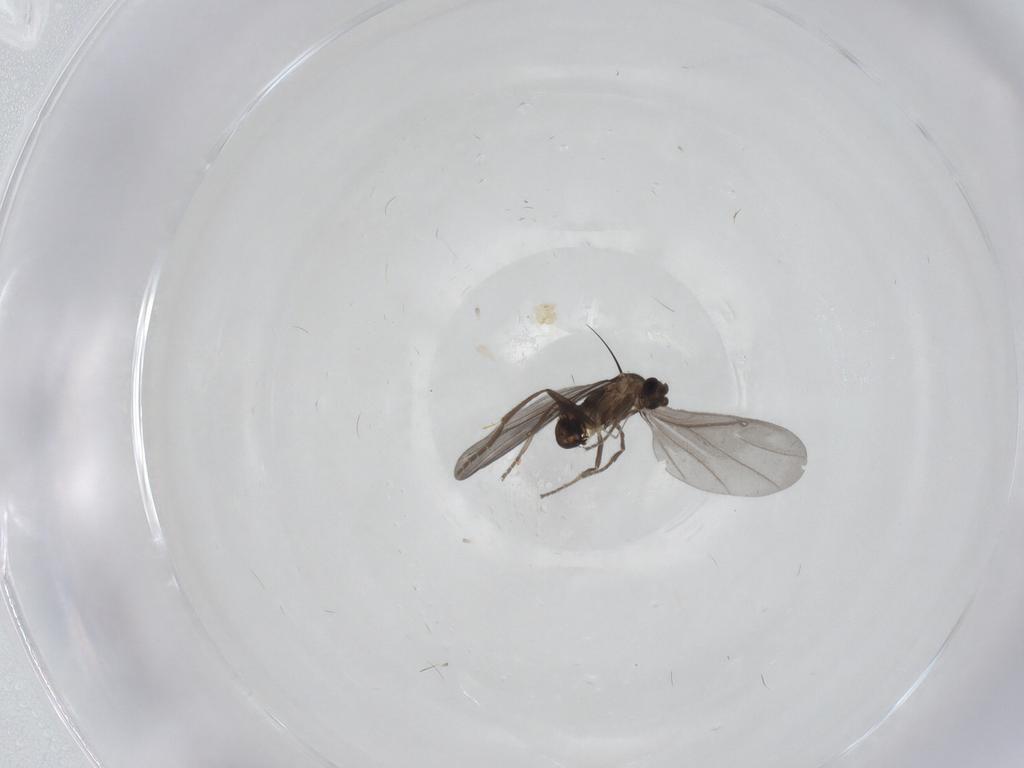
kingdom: Animalia
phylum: Arthropoda
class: Insecta
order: Diptera
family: Phoridae
